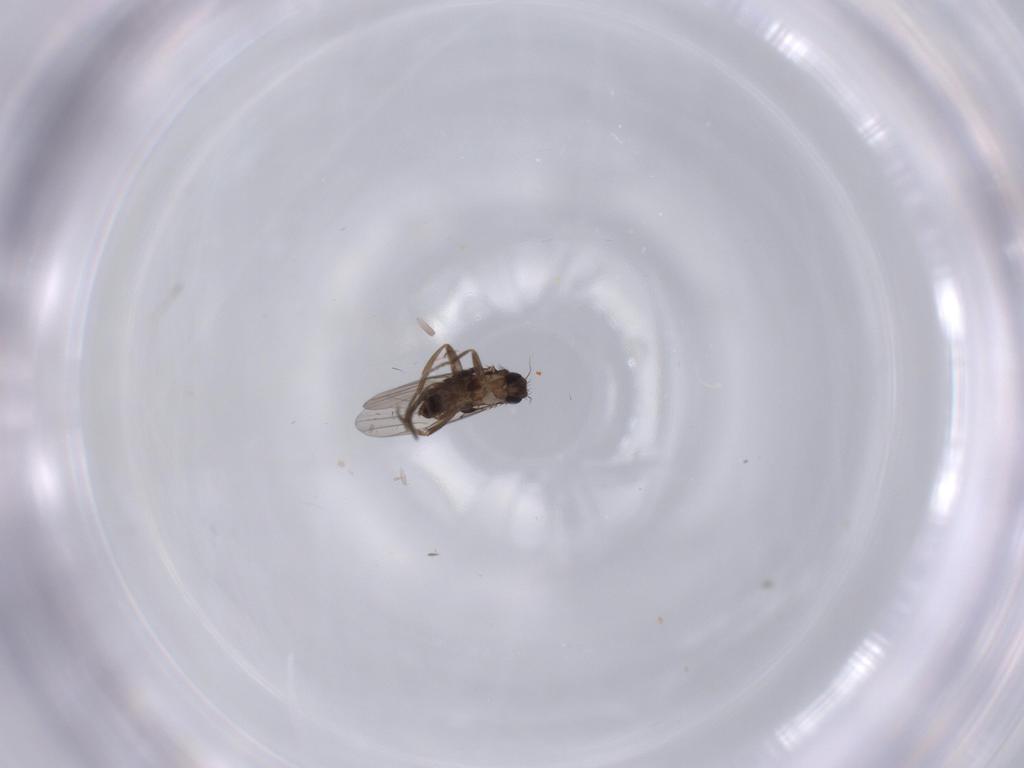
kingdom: Animalia
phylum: Arthropoda
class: Insecta
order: Diptera
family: Phoridae
